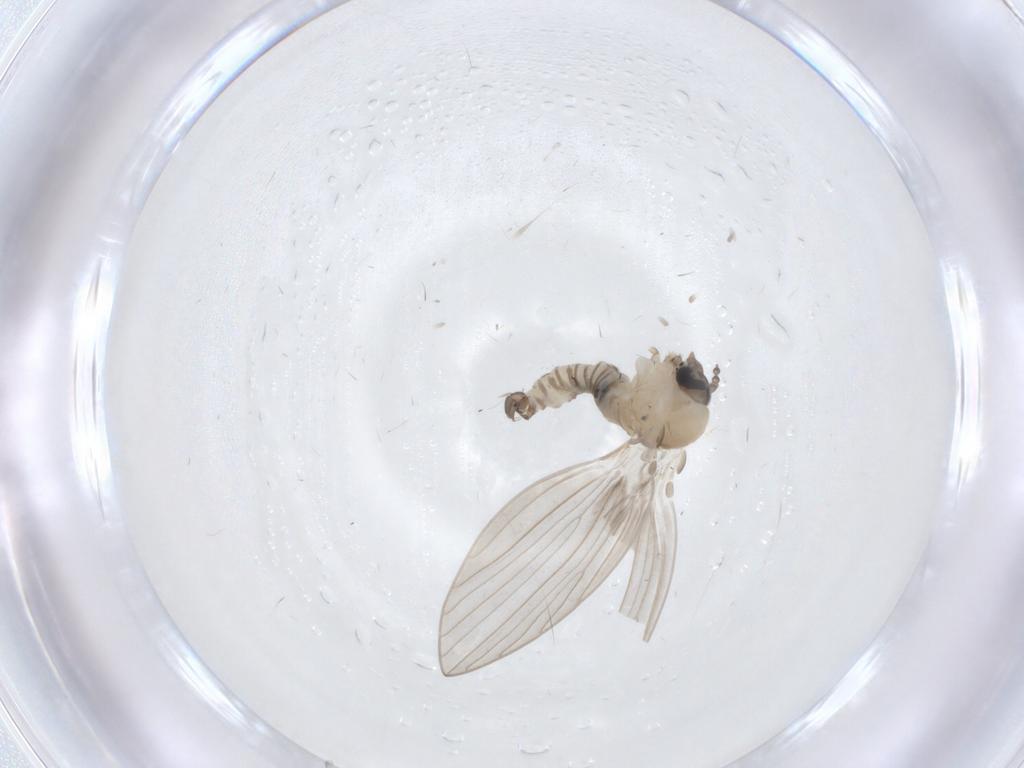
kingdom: Animalia
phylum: Arthropoda
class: Insecta
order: Diptera
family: Psychodidae
